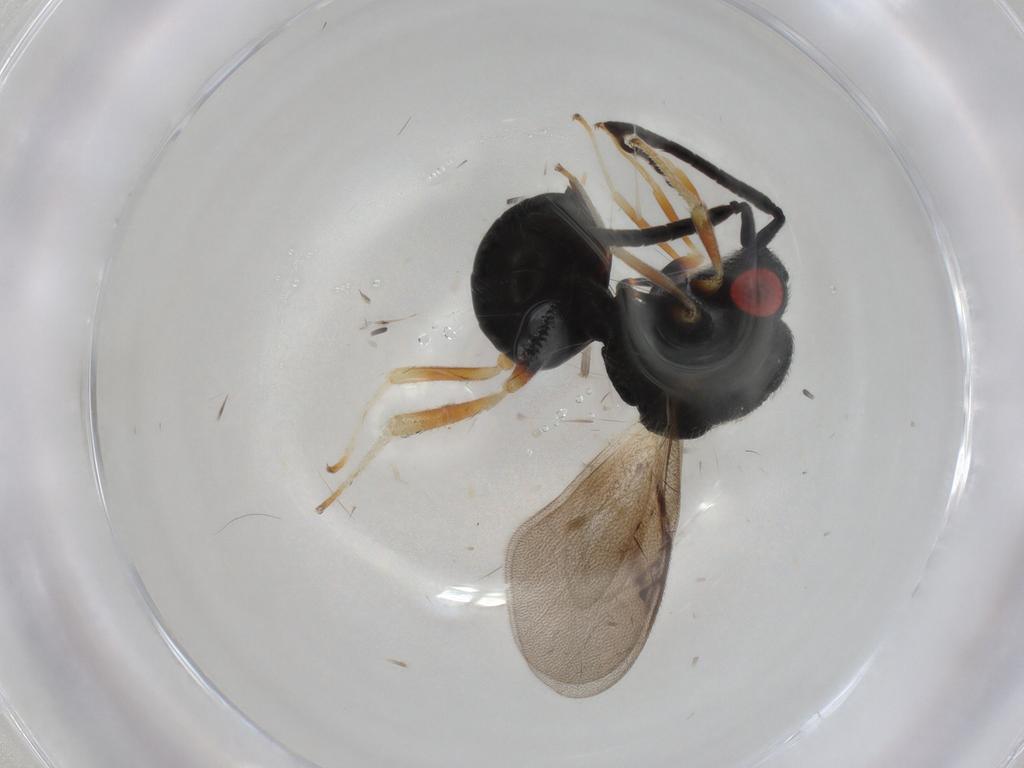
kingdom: Animalia
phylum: Arthropoda
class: Insecta
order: Hymenoptera
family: Eurytomidae
